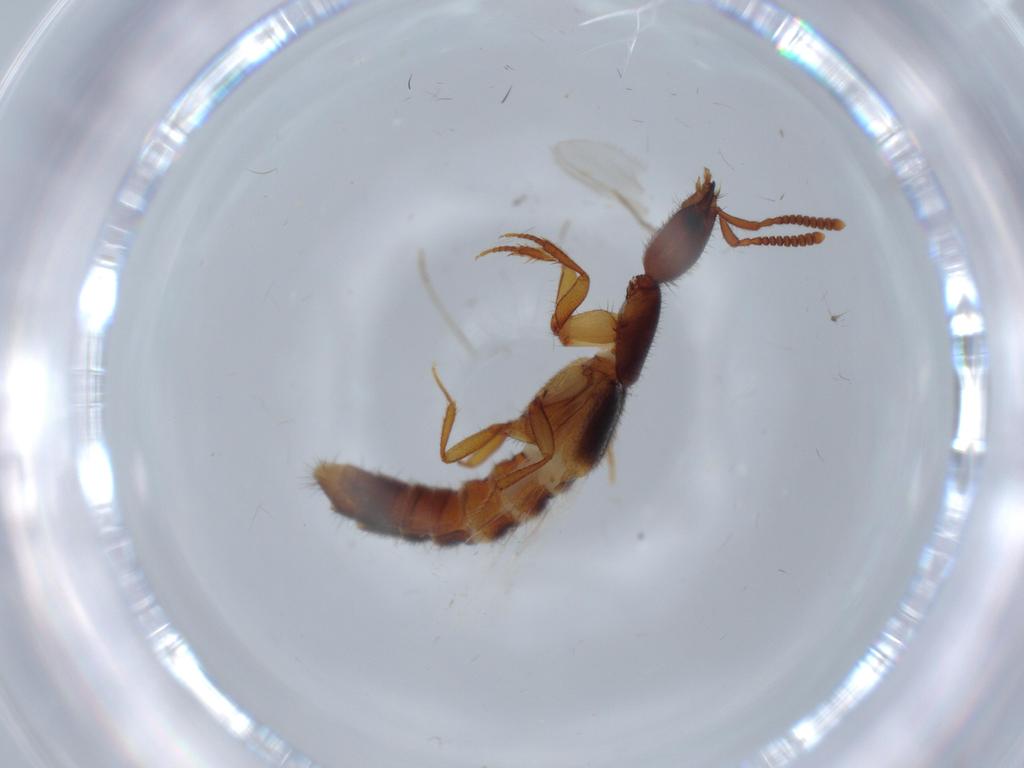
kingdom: Animalia
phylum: Arthropoda
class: Insecta
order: Coleoptera
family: Staphylinidae
